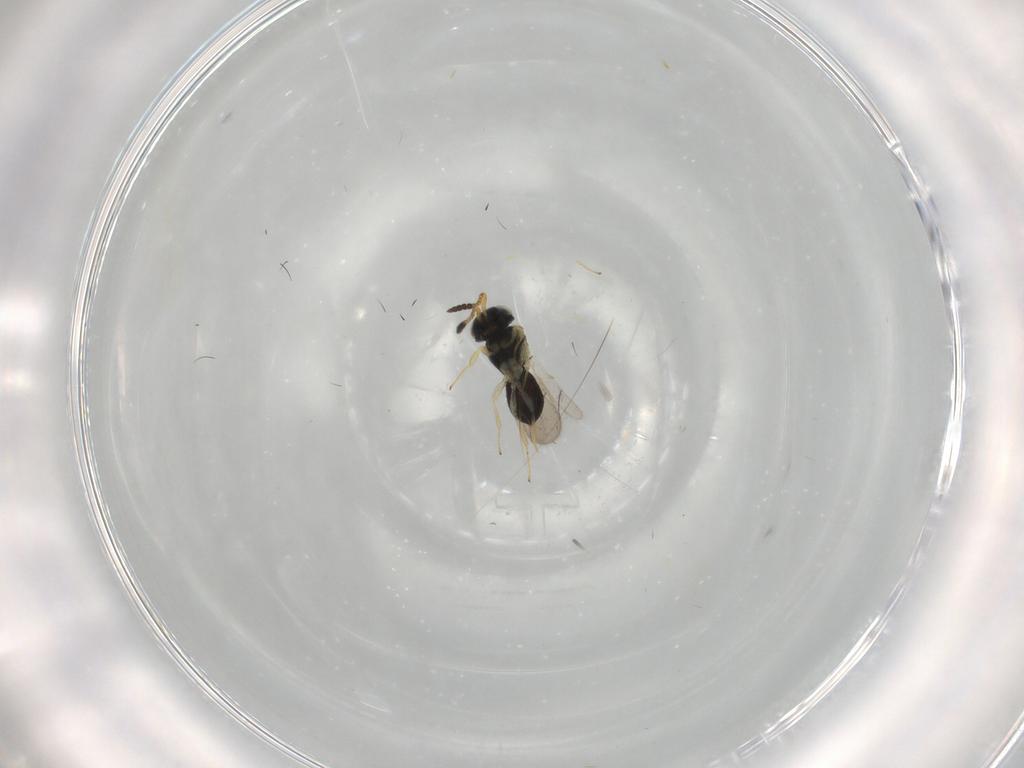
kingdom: Animalia
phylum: Arthropoda
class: Insecta
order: Hymenoptera
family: Scelionidae
